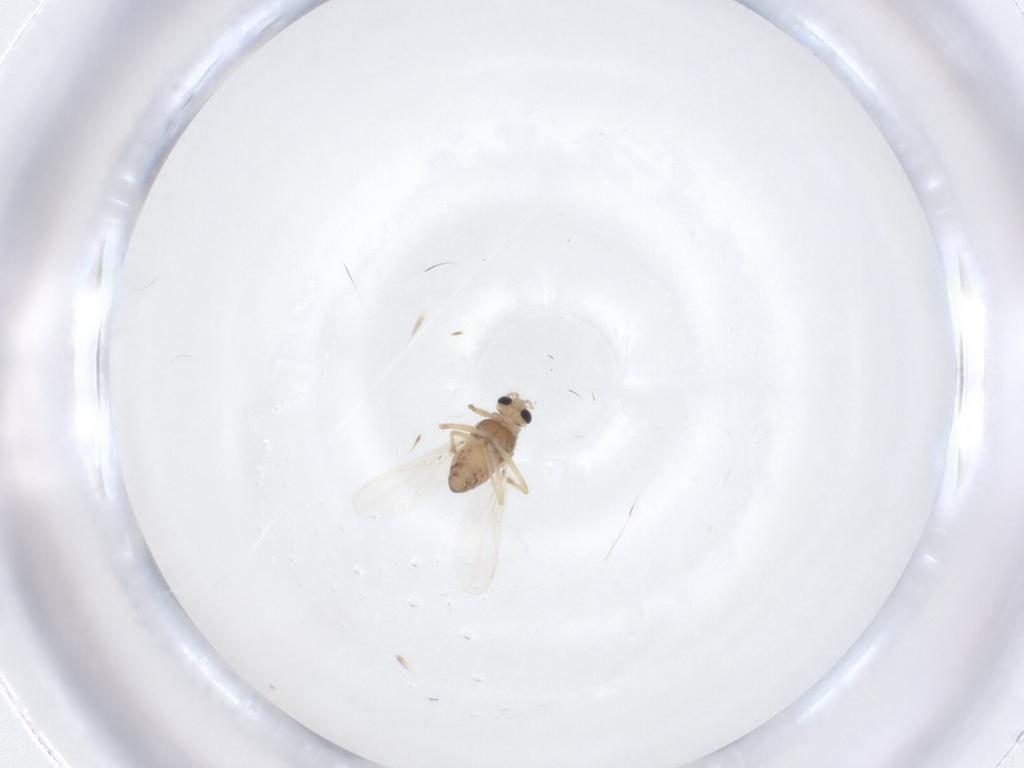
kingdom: Animalia
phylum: Arthropoda
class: Insecta
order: Diptera
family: Chironomidae
